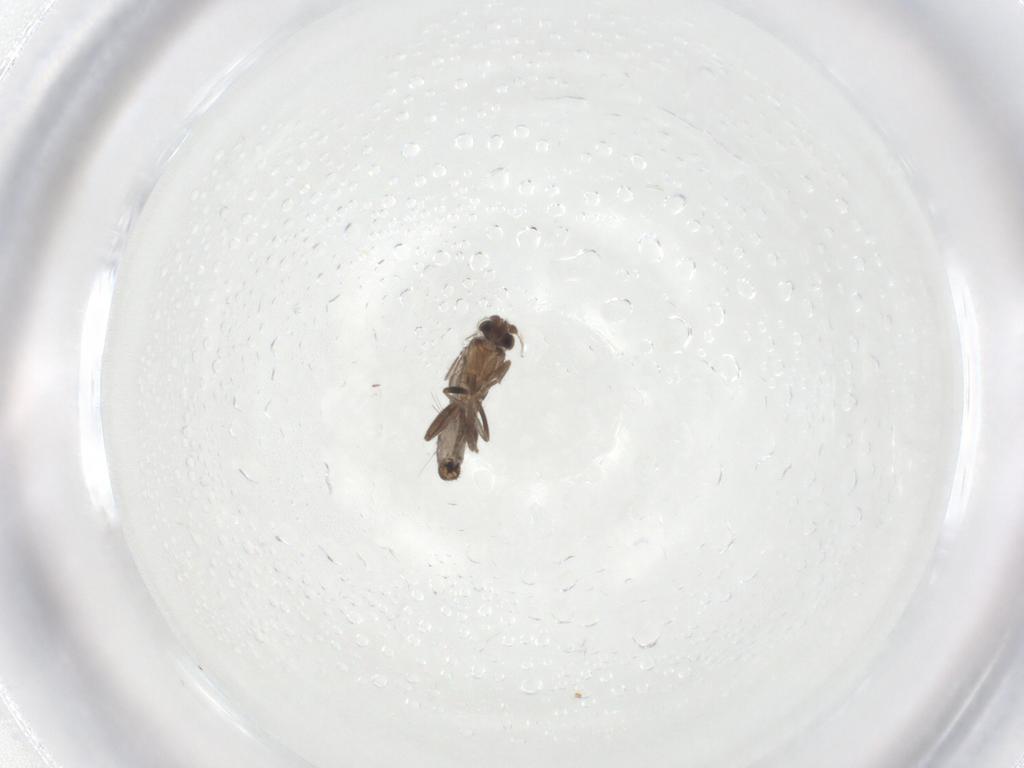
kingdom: Animalia
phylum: Arthropoda
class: Insecta
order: Diptera
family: Phoridae
